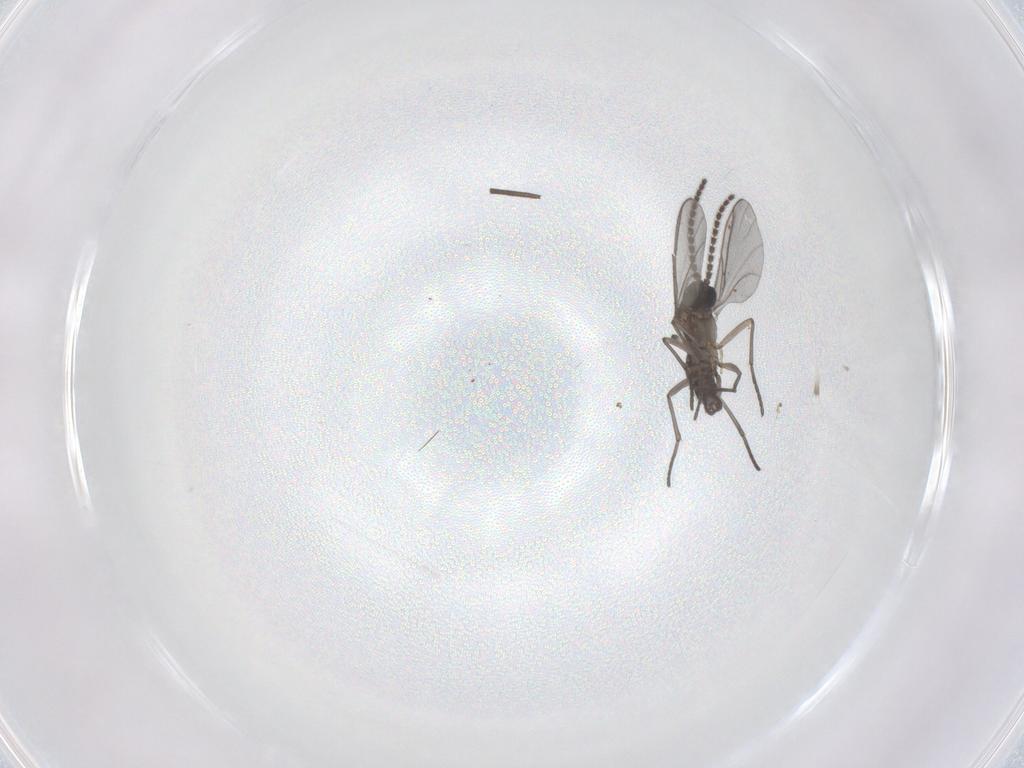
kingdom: Animalia
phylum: Arthropoda
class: Insecta
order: Diptera
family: Chironomidae
